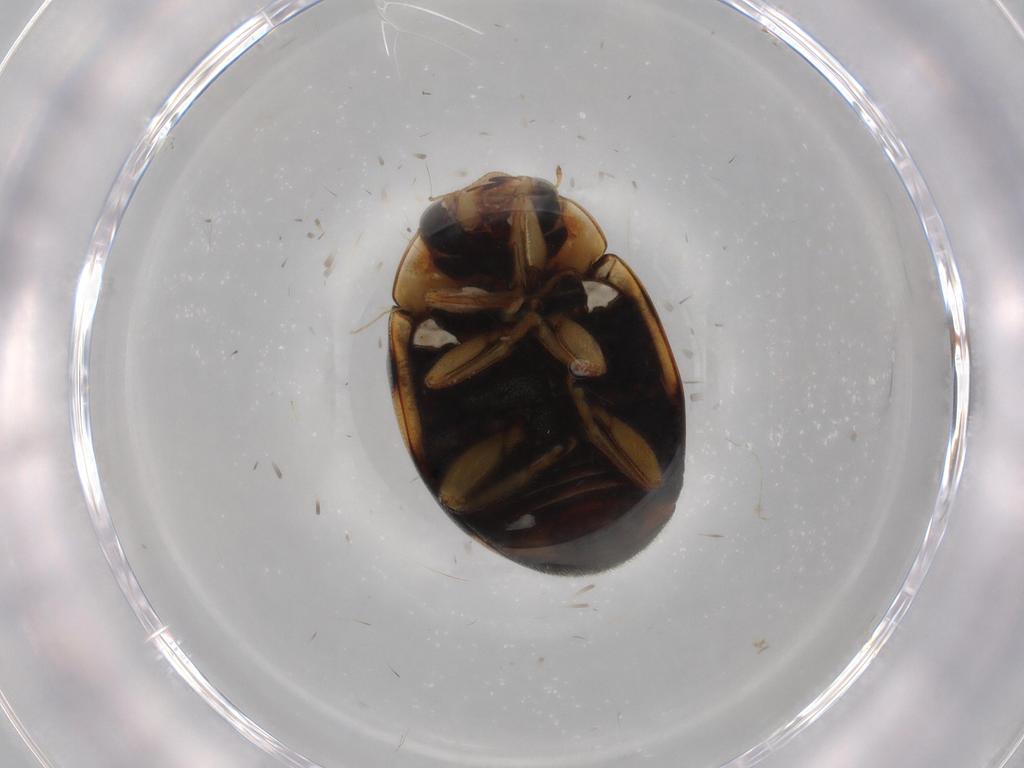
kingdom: Animalia
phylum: Arthropoda
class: Insecta
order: Coleoptera
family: Coccinellidae
